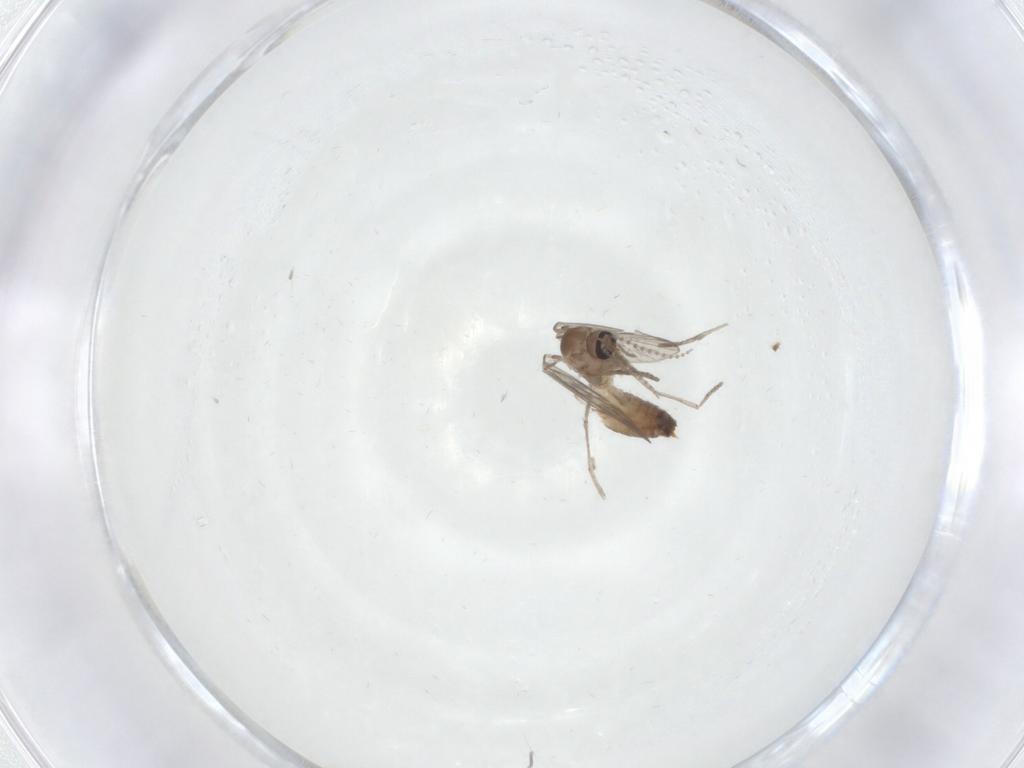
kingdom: Animalia
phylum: Arthropoda
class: Insecta
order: Diptera
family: Psychodidae
